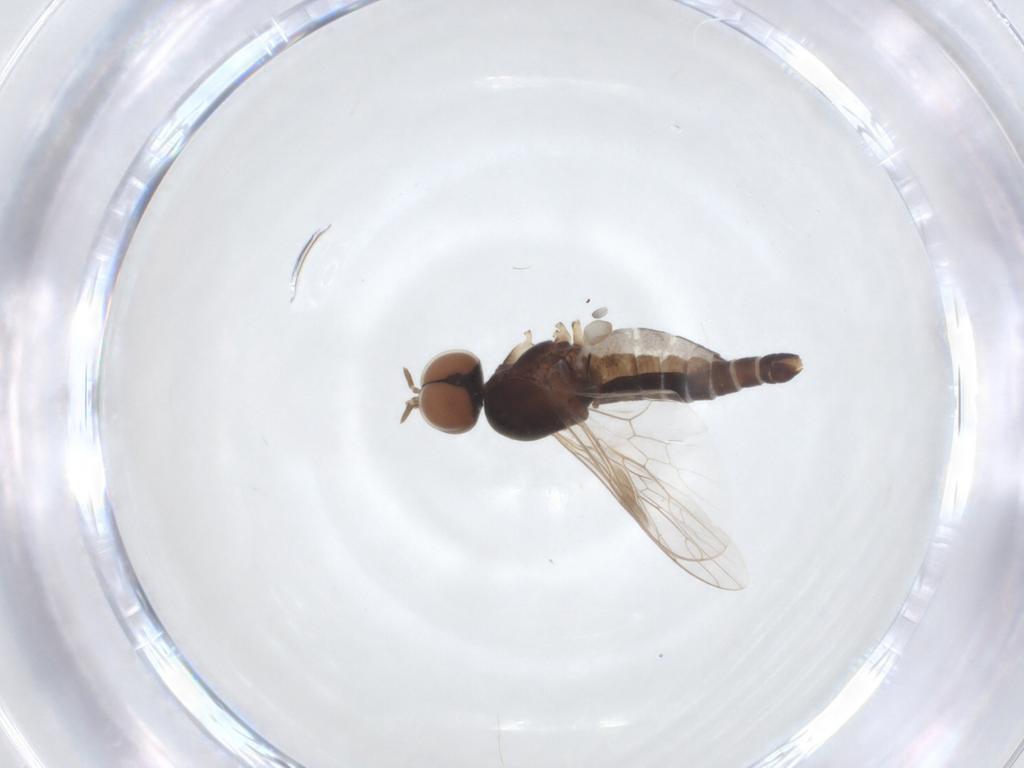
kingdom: Animalia
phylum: Arthropoda
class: Insecta
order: Diptera
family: Scenopinidae
